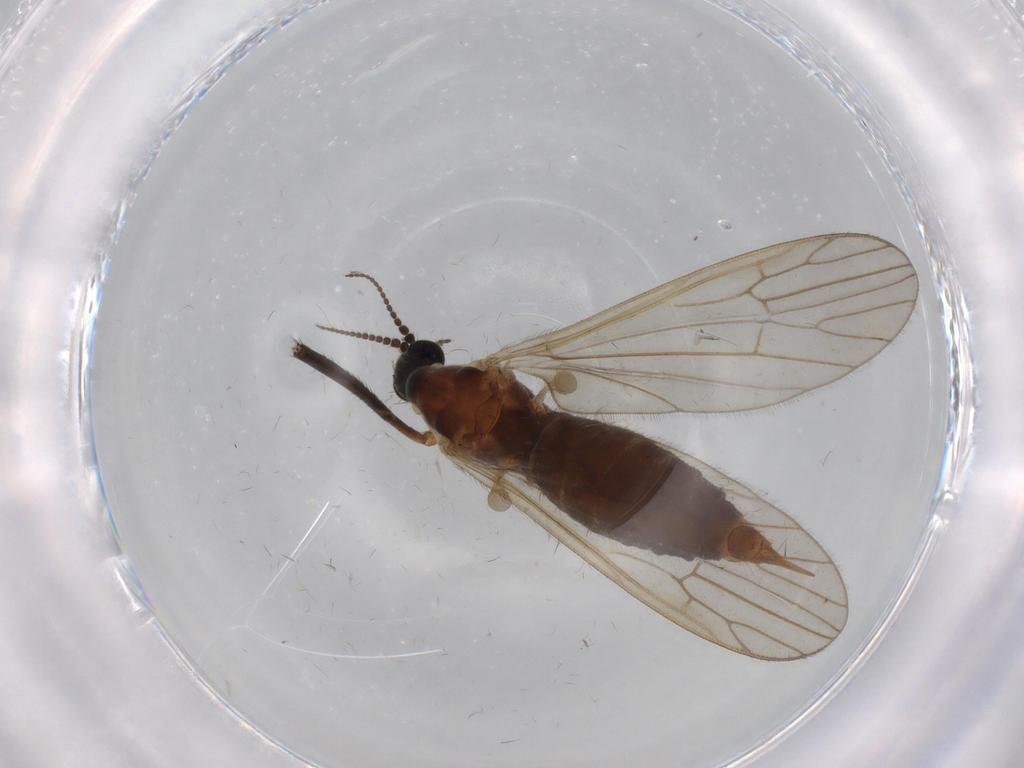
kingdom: Animalia
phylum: Arthropoda
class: Insecta
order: Diptera
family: Agromyzidae
